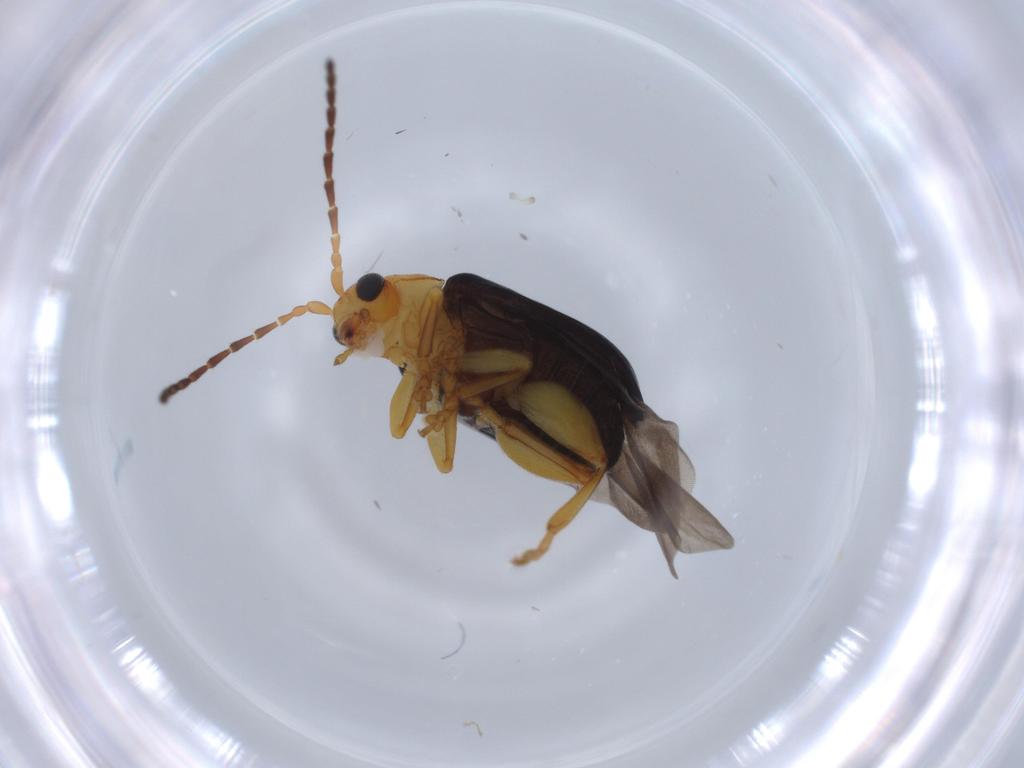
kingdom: Animalia
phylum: Arthropoda
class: Insecta
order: Coleoptera
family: Chrysomelidae
